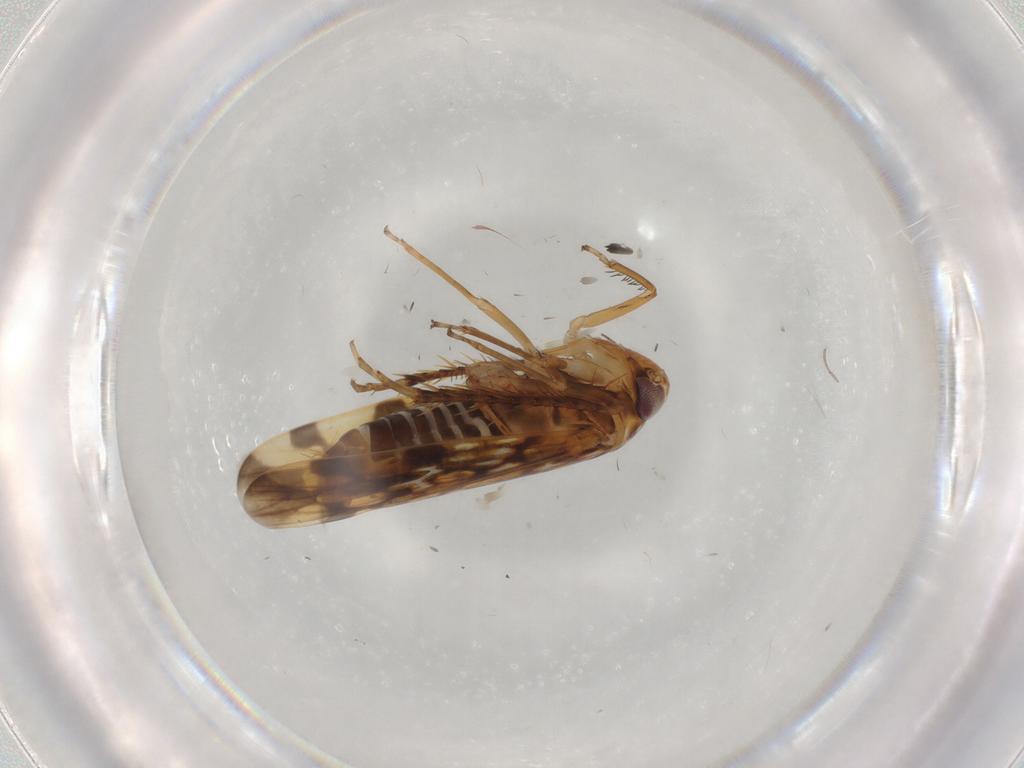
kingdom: Animalia
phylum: Arthropoda
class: Insecta
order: Hemiptera
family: Cicadellidae
